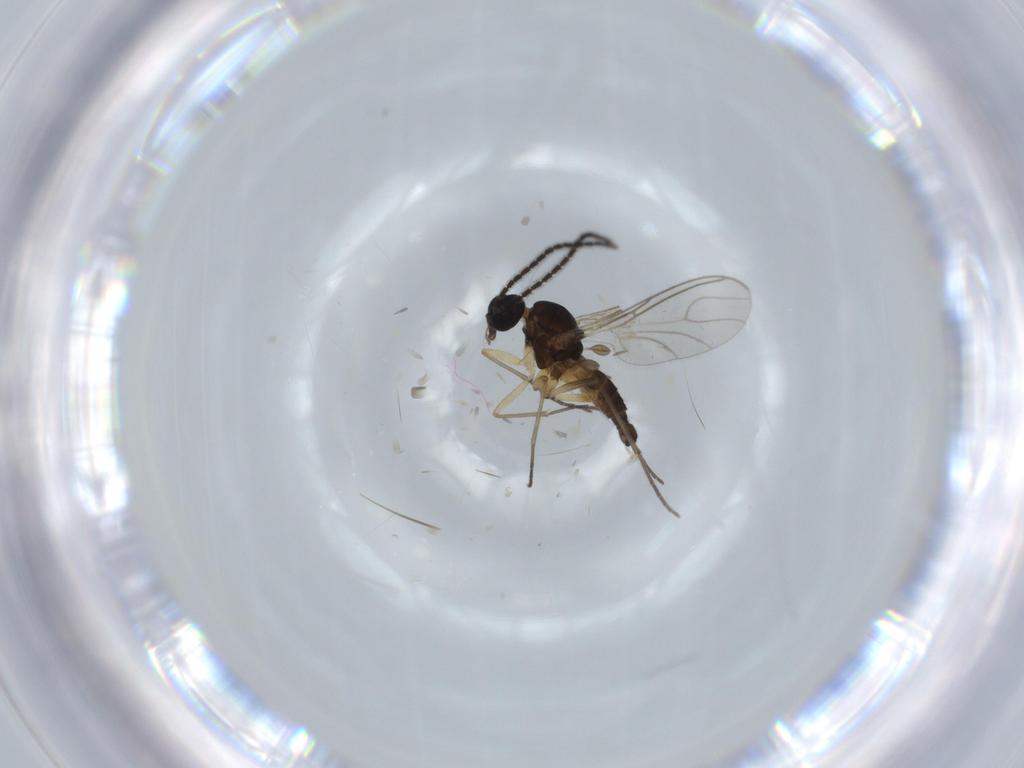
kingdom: Animalia
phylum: Arthropoda
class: Insecta
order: Diptera
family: Sciaridae
